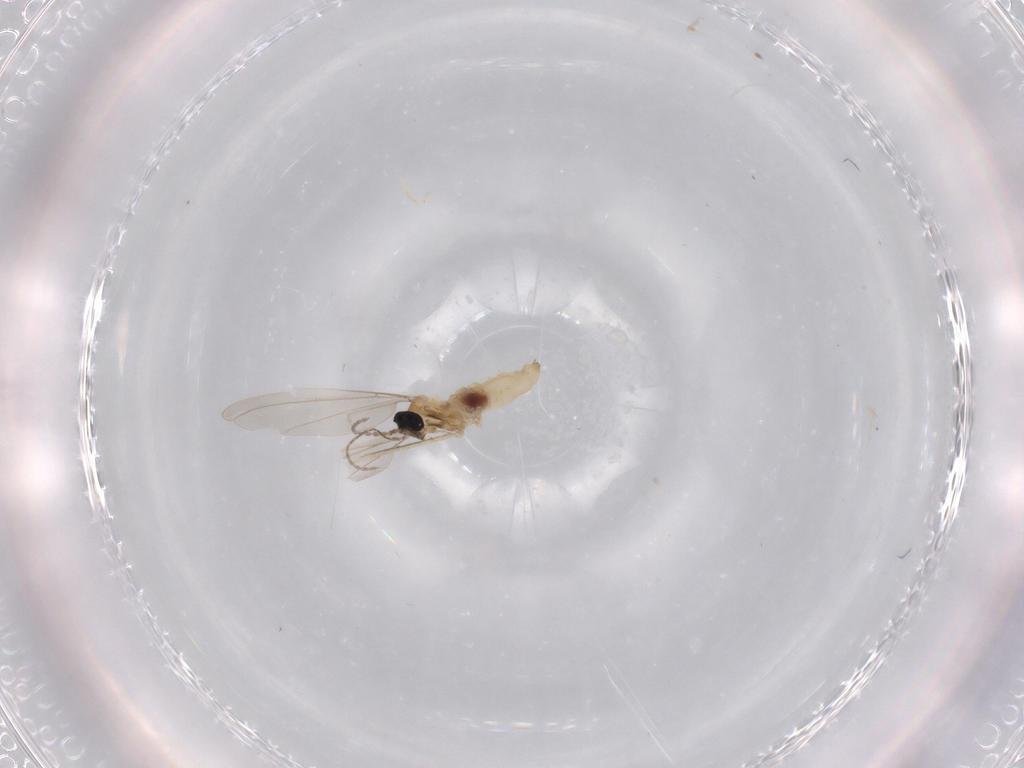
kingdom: Animalia
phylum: Arthropoda
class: Insecta
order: Diptera
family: Cecidomyiidae
